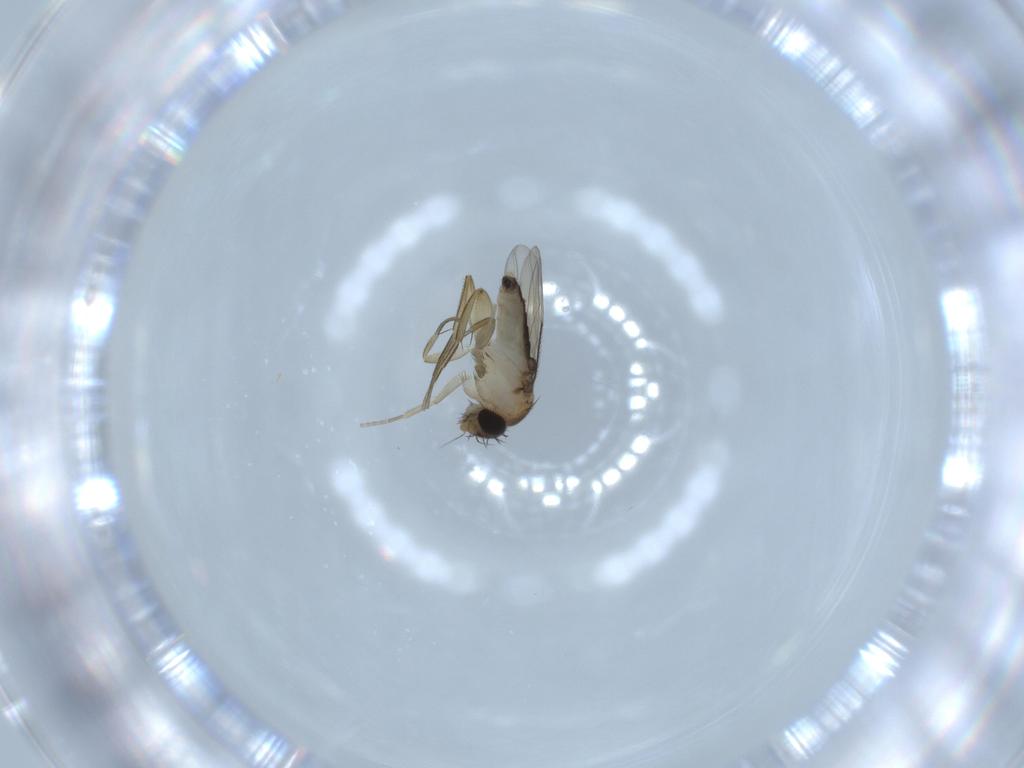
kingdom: Animalia
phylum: Arthropoda
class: Insecta
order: Diptera
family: Phoridae
